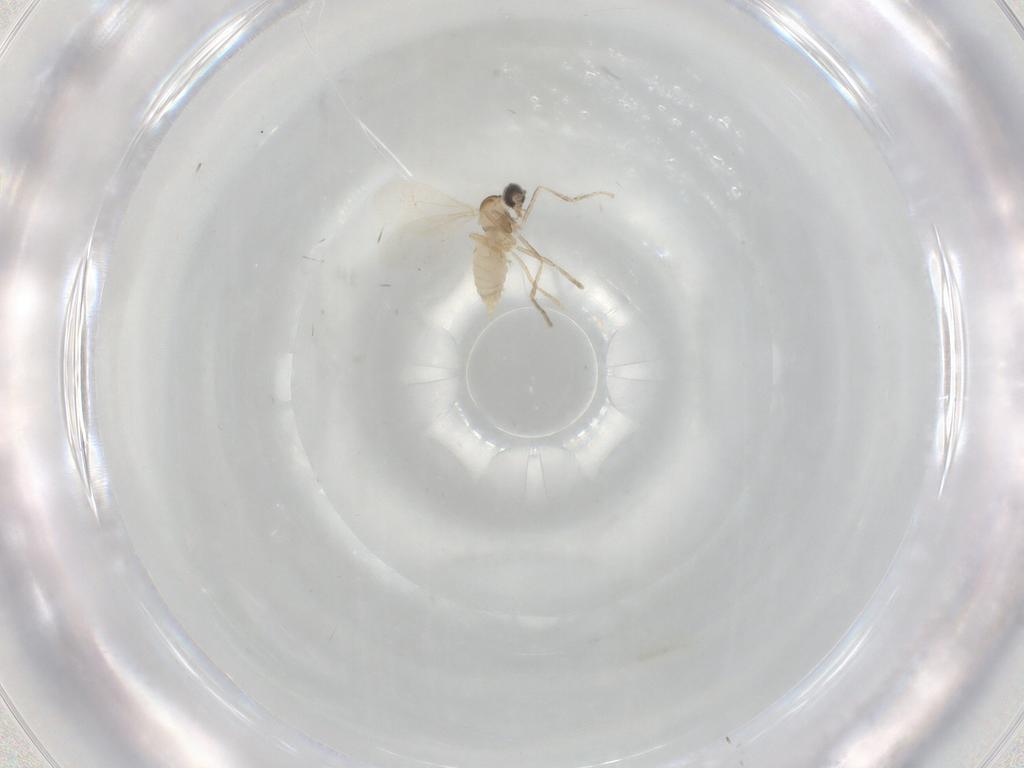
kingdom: Animalia
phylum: Arthropoda
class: Insecta
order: Diptera
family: Cecidomyiidae
